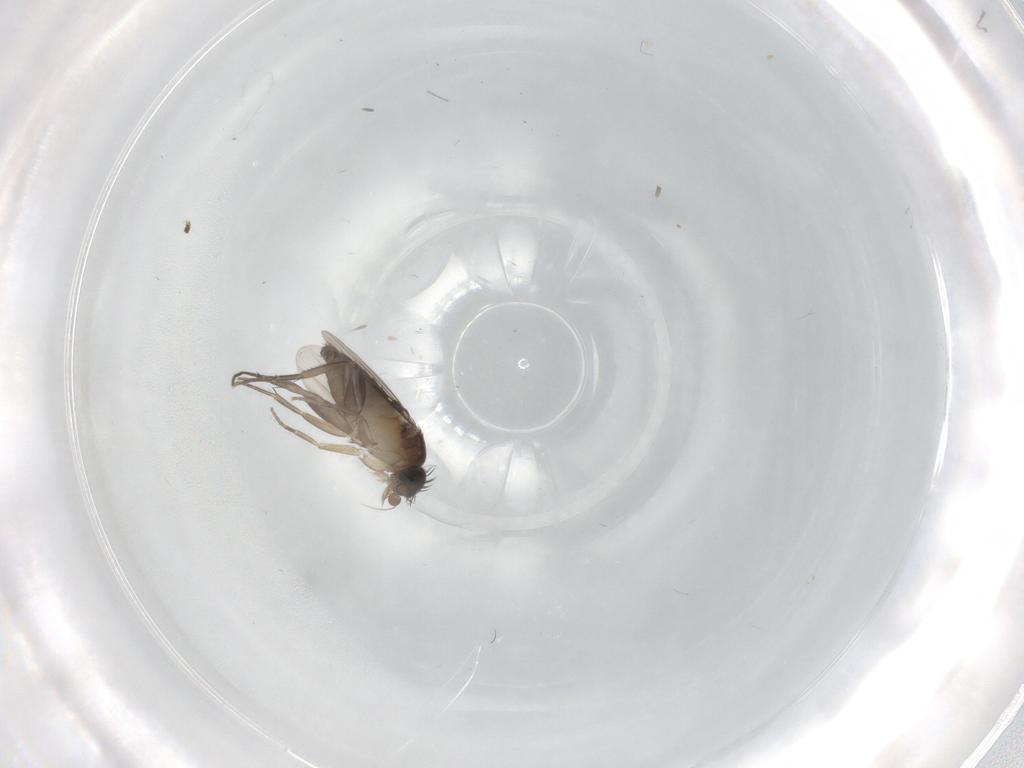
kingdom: Animalia
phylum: Arthropoda
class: Insecta
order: Diptera
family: Phoridae
